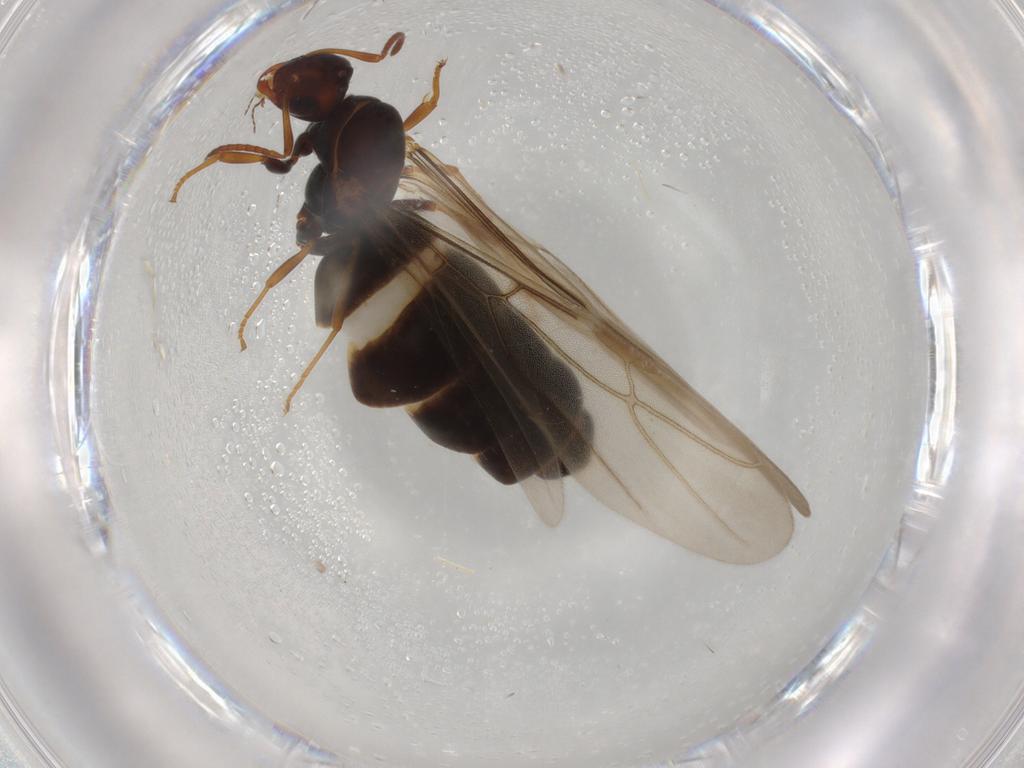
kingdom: Animalia
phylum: Arthropoda
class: Insecta
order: Hymenoptera
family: Formicidae
